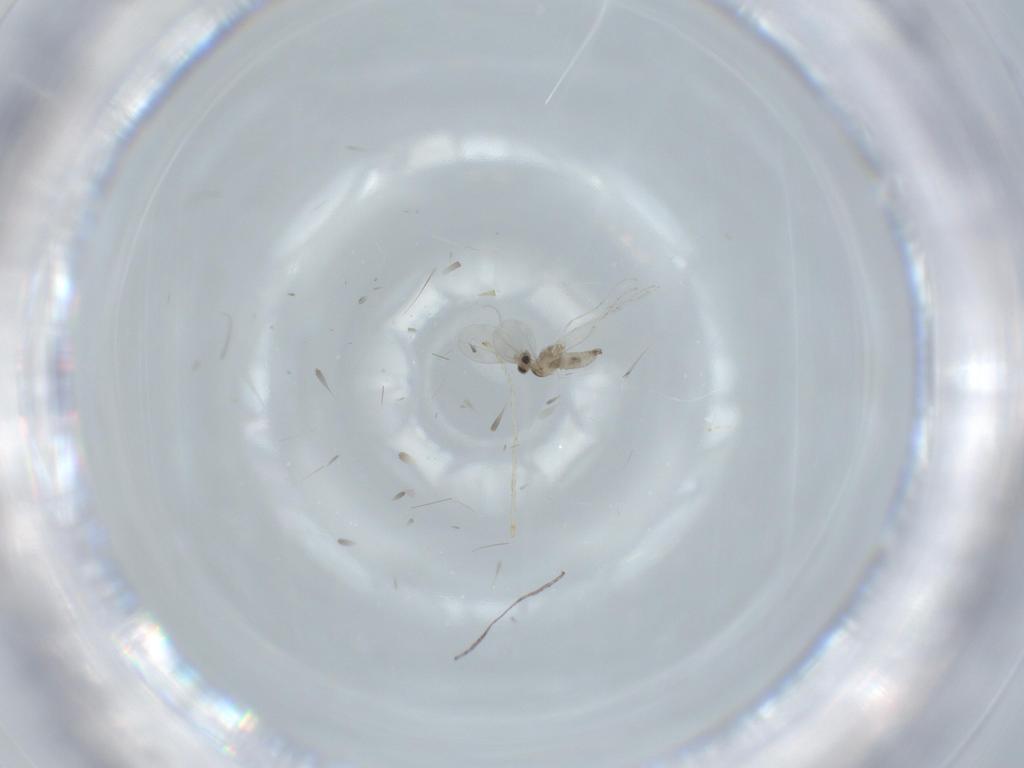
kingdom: Animalia
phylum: Arthropoda
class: Insecta
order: Diptera
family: Cecidomyiidae
